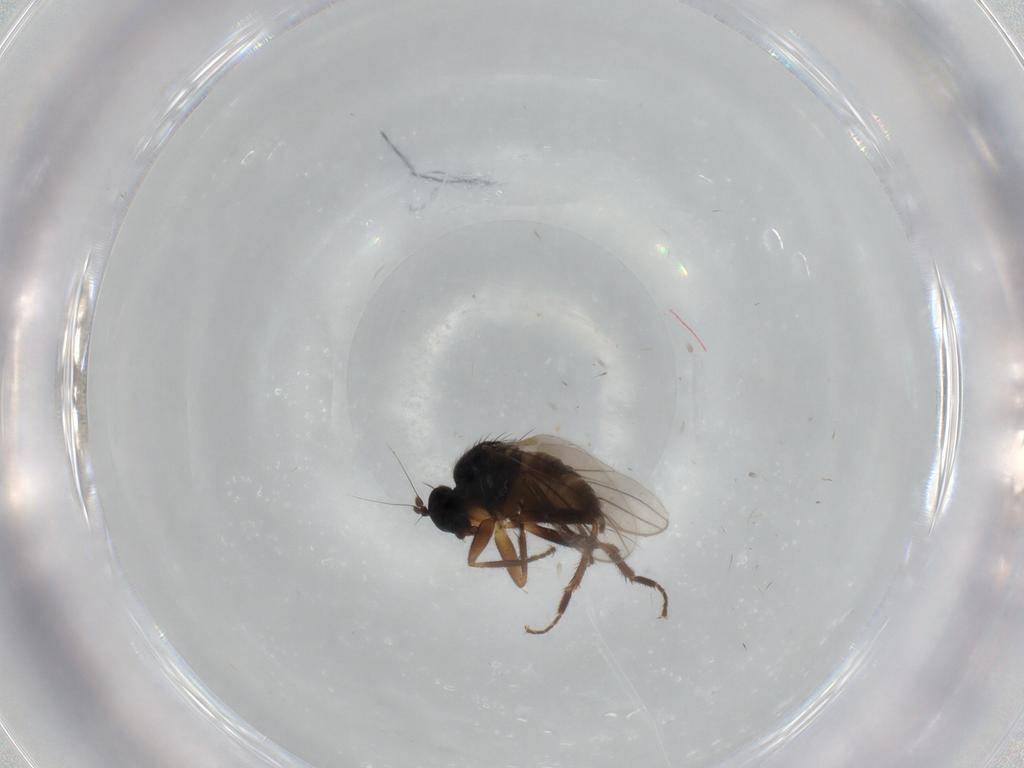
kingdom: Animalia
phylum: Arthropoda
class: Insecta
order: Diptera
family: Hybotidae
